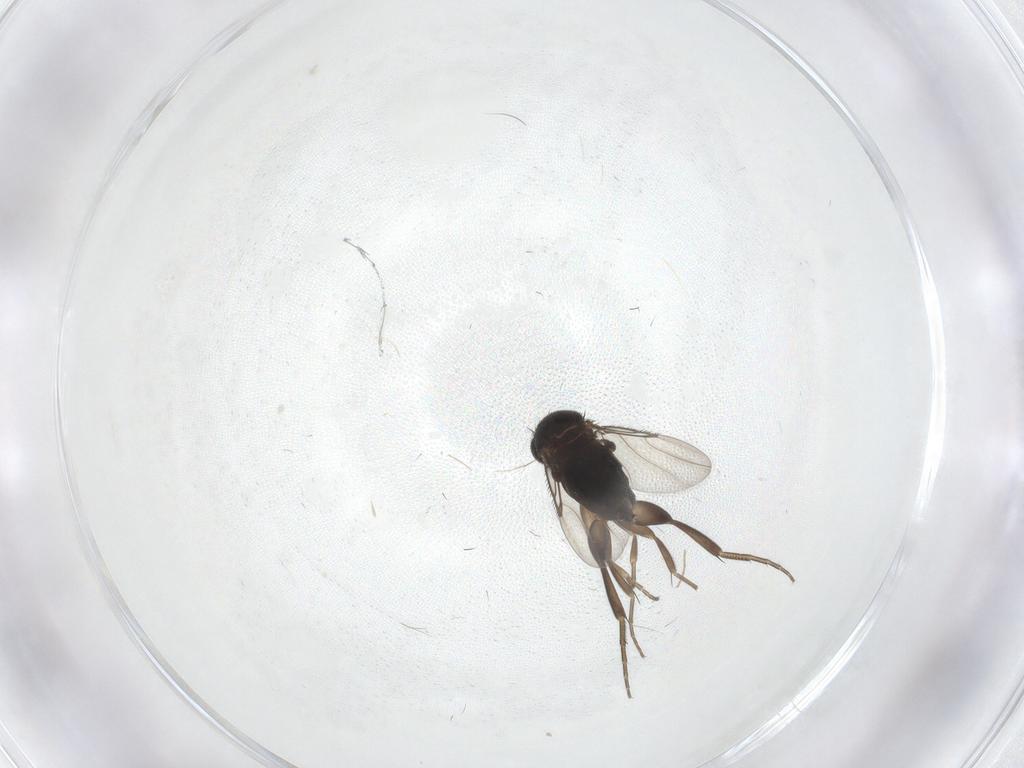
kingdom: Animalia
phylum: Arthropoda
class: Insecta
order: Diptera
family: Phoridae
